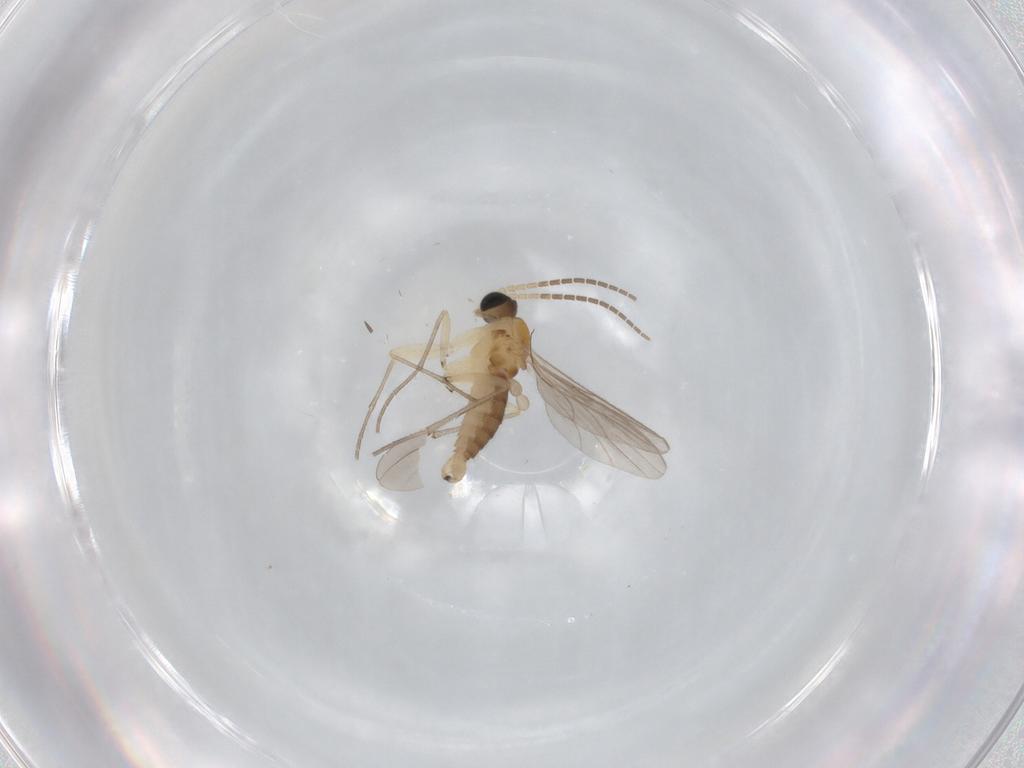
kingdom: Animalia
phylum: Arthropoda
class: Insecta
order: Diptera
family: Sciaridae
